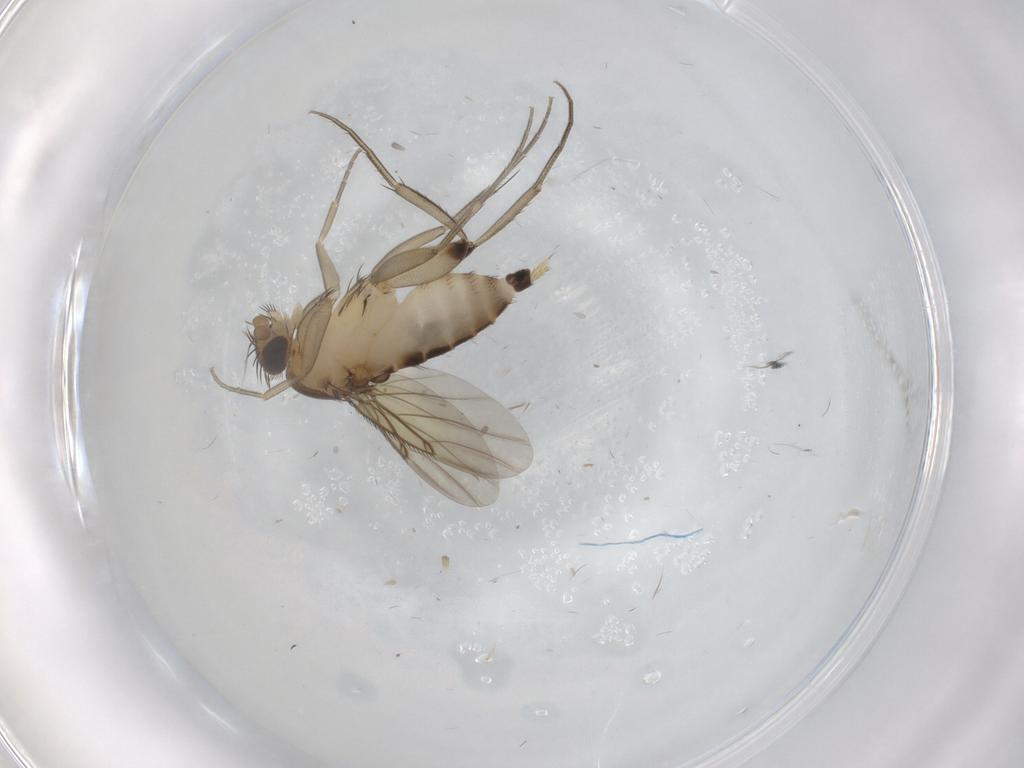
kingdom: Animalia
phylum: Arthropoda
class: Insecta
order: Diptera
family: Phoridae
